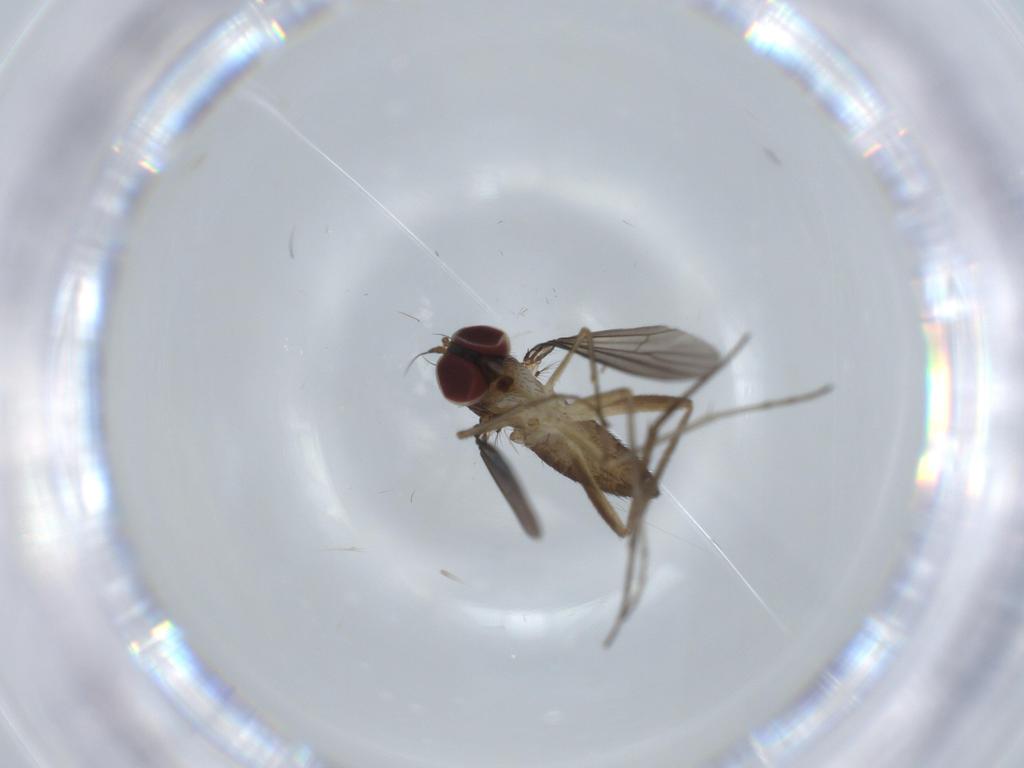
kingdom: Animalia
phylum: Arthropoda
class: Insecta
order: Diptera
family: Dolichopodidae
